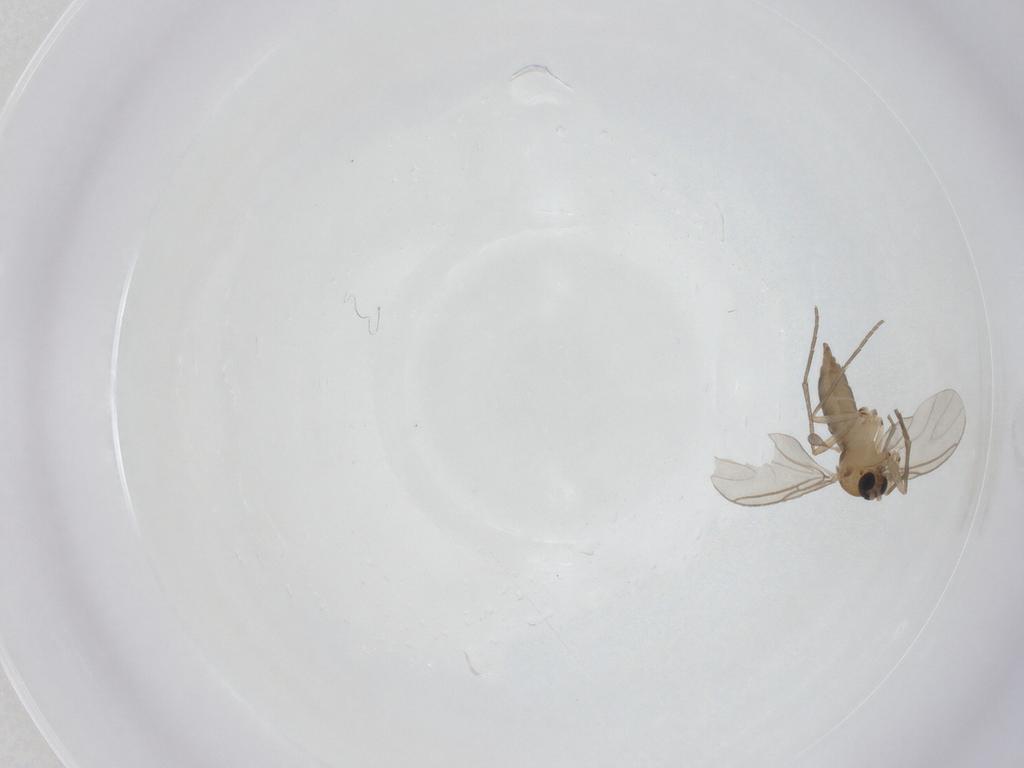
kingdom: Animalia
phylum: Arthropoda
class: Insecta
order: Diptera
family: Sciaridae
